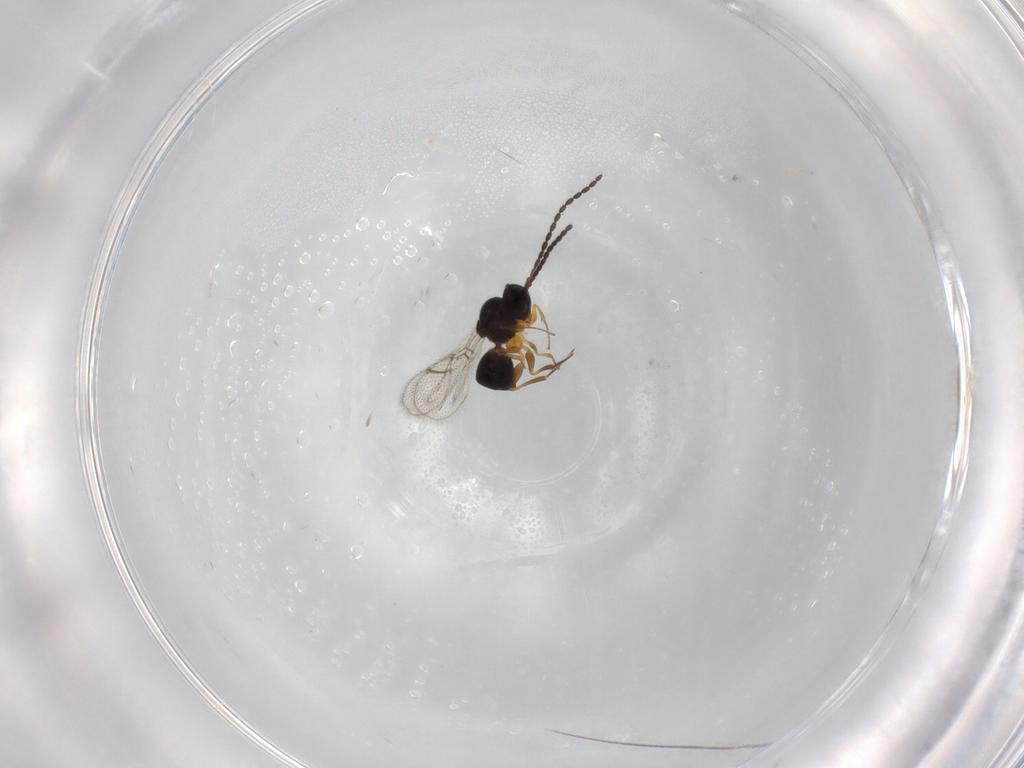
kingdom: Animalia
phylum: Arthropoda
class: Insecta
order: Hymenoptera
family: Figitidae
